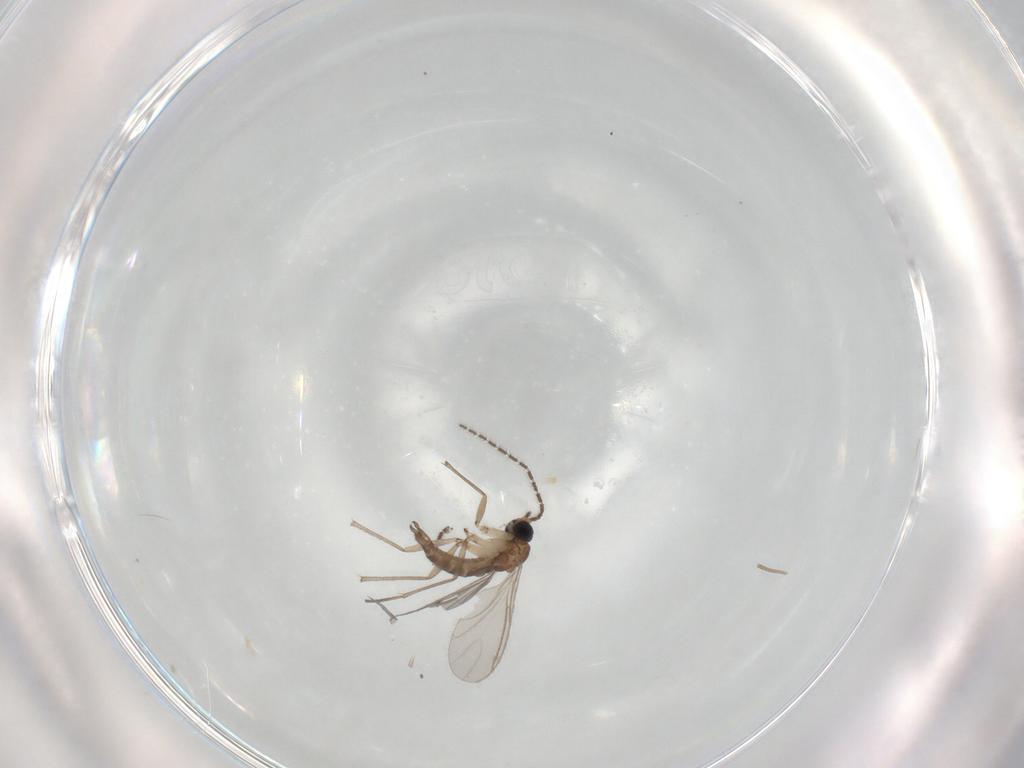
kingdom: Animalia
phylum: Arthropoda
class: Insecta
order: Diptera
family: Sciaridae
